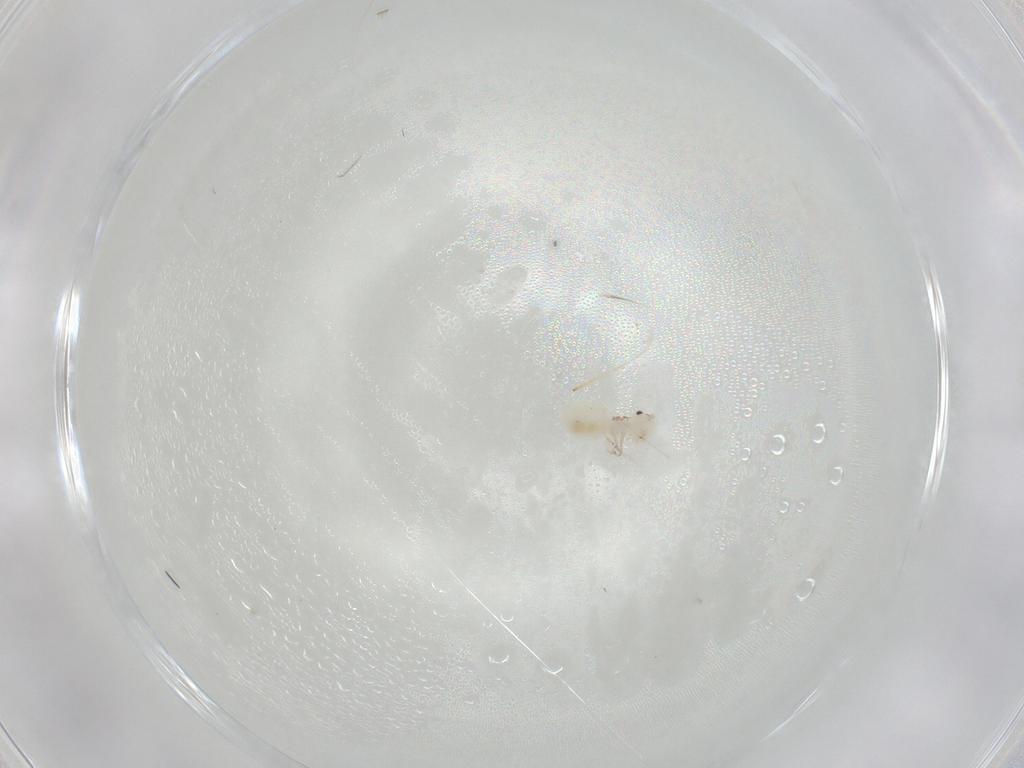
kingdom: Animalia
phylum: Arthropoda
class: Insecta
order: Psocodea
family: Caeciliusidae
